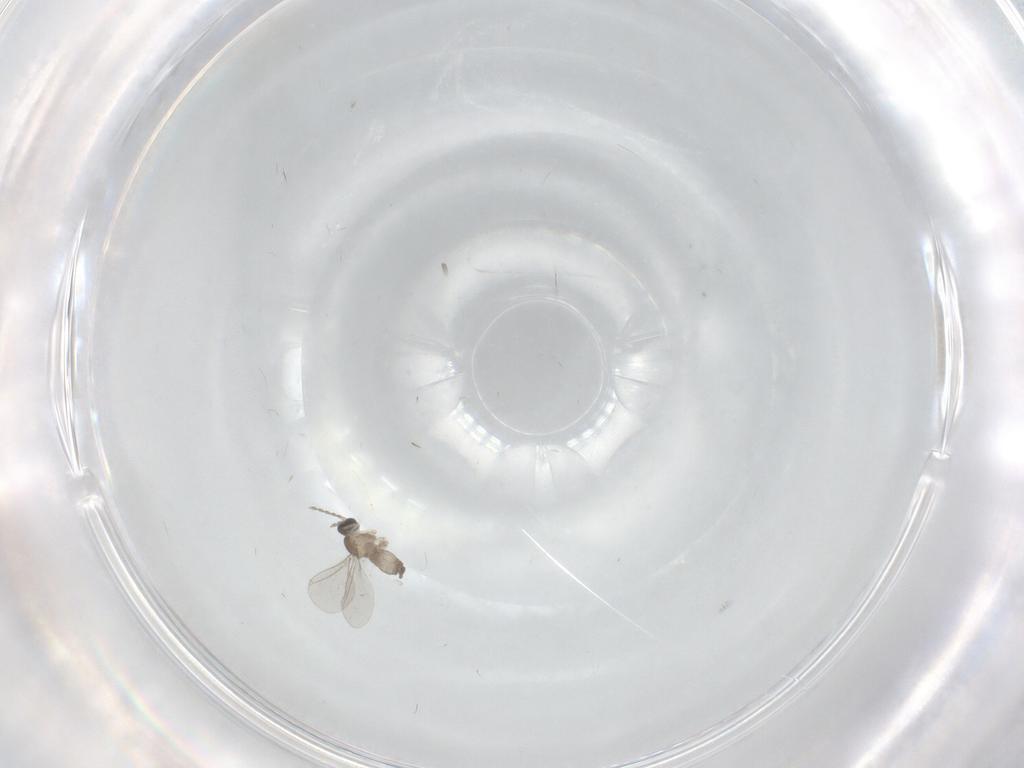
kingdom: Animalia
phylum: Arthropoda
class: Insecta
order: Diptera
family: Cecidomyiidae
